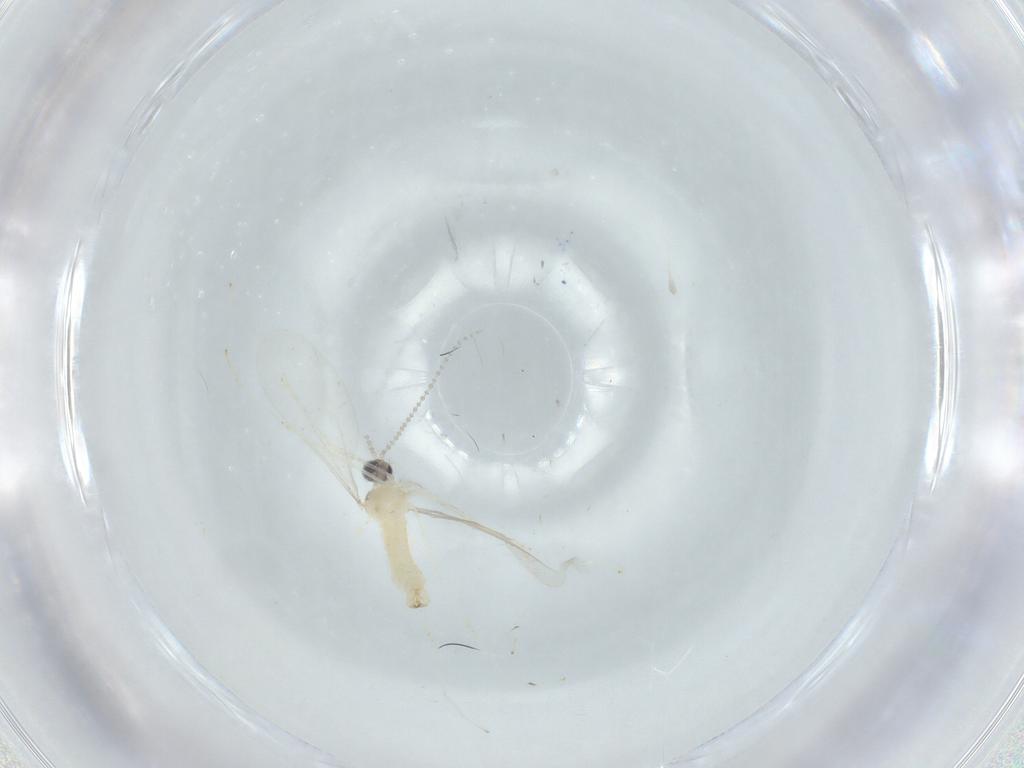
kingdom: Animalia
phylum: Arthropoda
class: Insecta
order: Diptera
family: Cecidomyiidae
